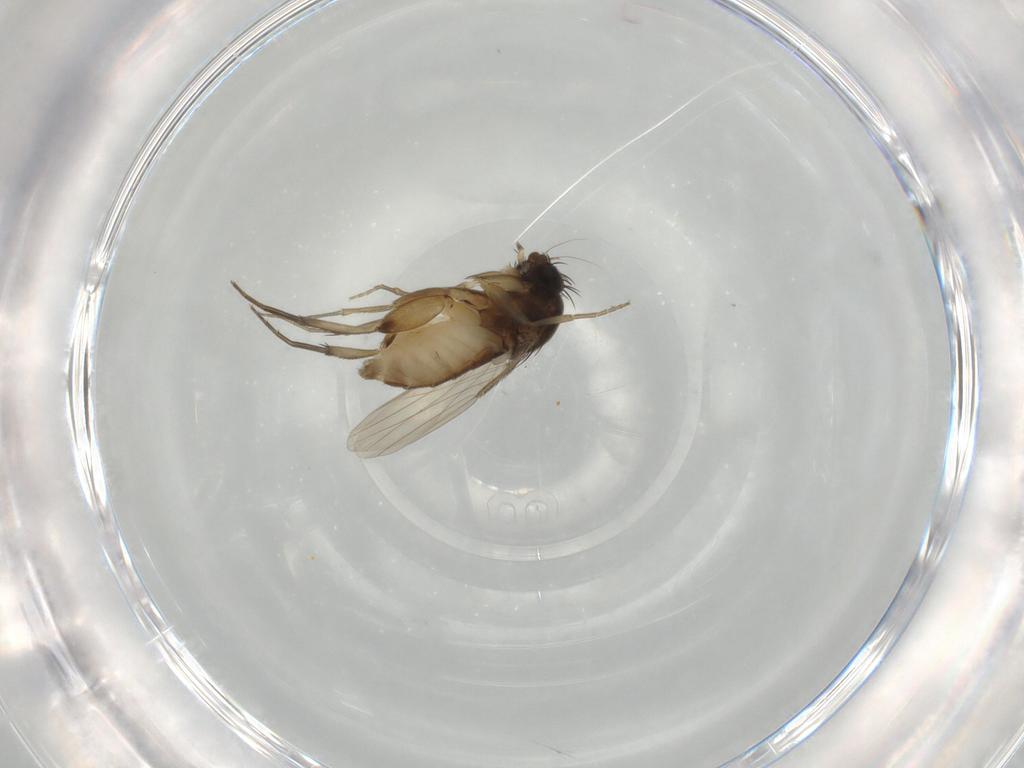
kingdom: Animalia
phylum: Arthropoda
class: Insecta
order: Diptera
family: Phoridae
